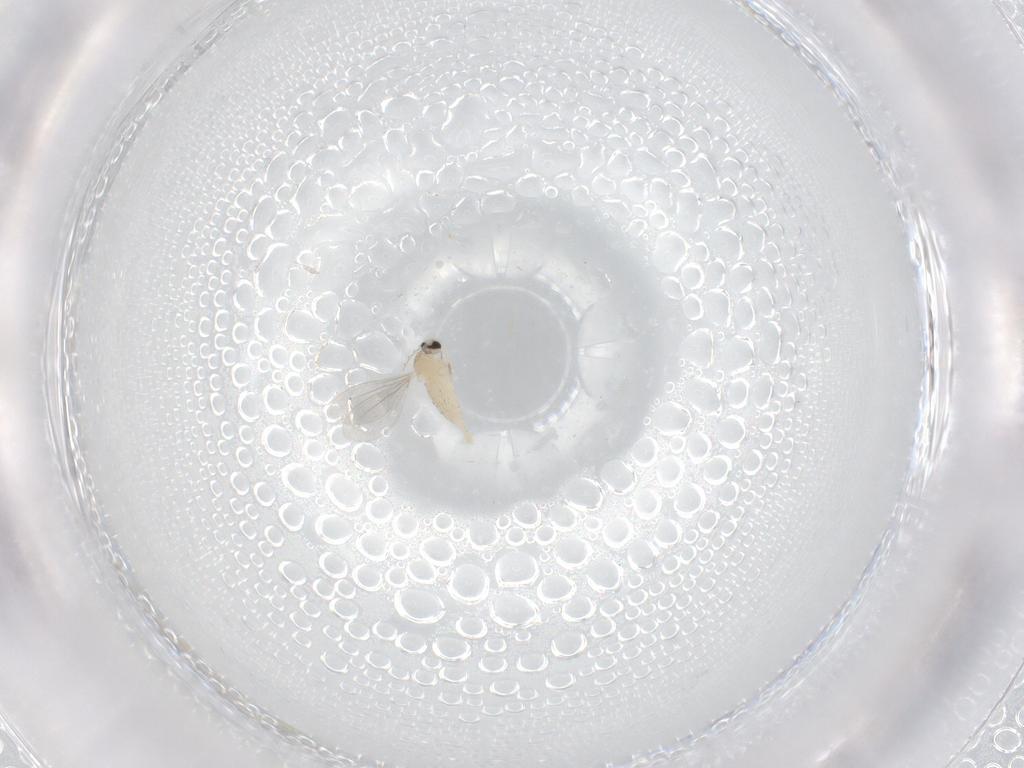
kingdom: Animalia
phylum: Arthropoda
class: Insecta
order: Diptera
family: Cecidomyiidae
